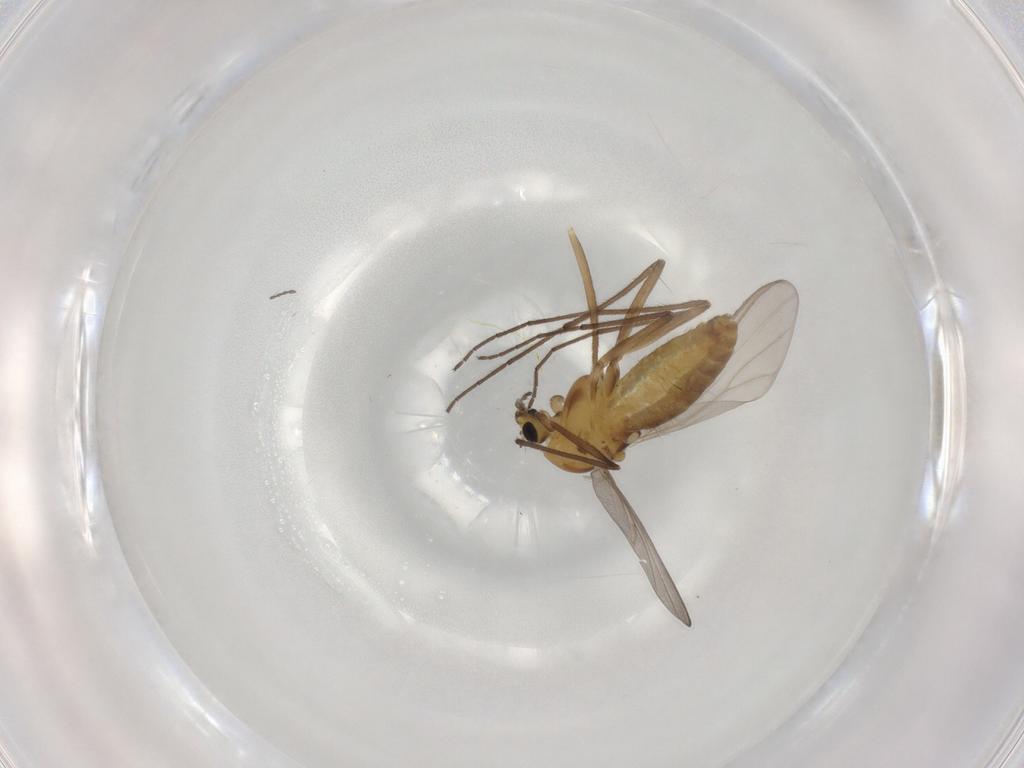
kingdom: Animalia
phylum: Arthropoda
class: Insecta
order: Diptera
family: Chironomidae
